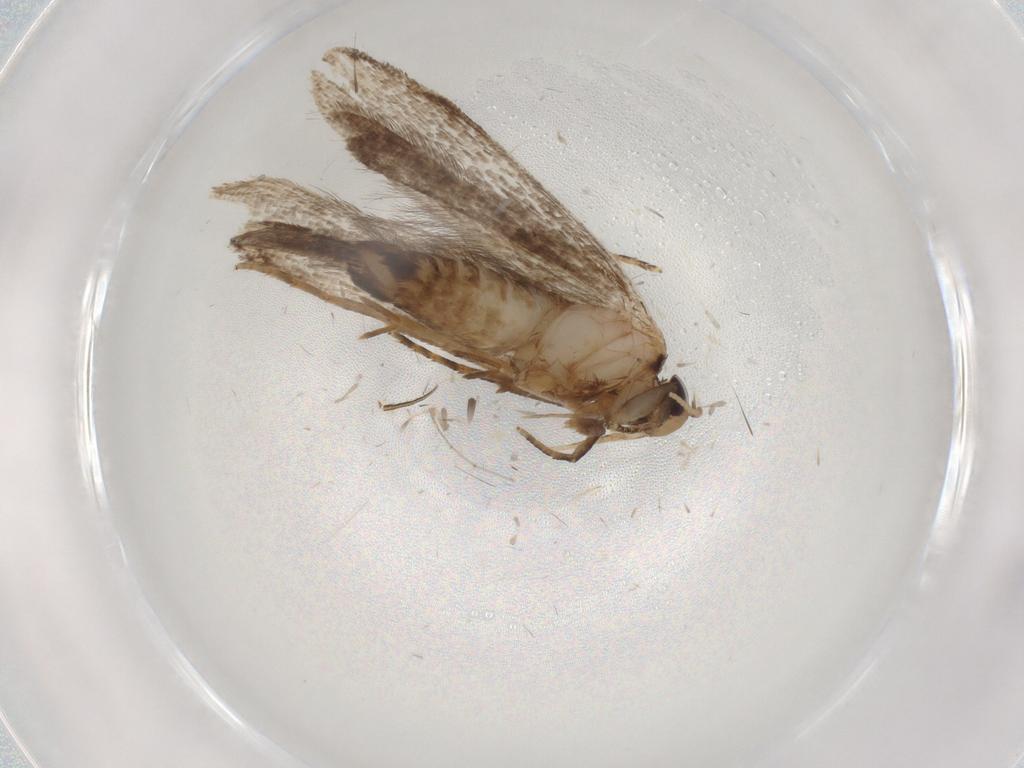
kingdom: Animalia
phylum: Arthropoda
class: Insecta
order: Lepidoptera
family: Gelechiidae
